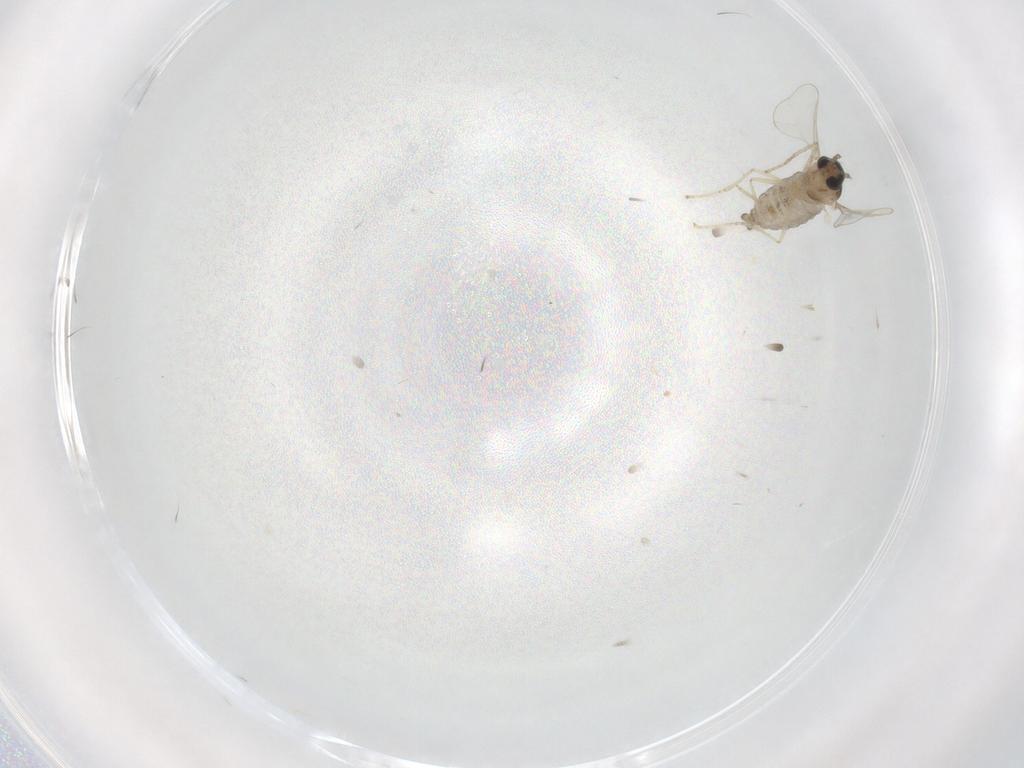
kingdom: Animalia
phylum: Arthropoda
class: Insecta
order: Diptera
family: Cecidomyiidae
